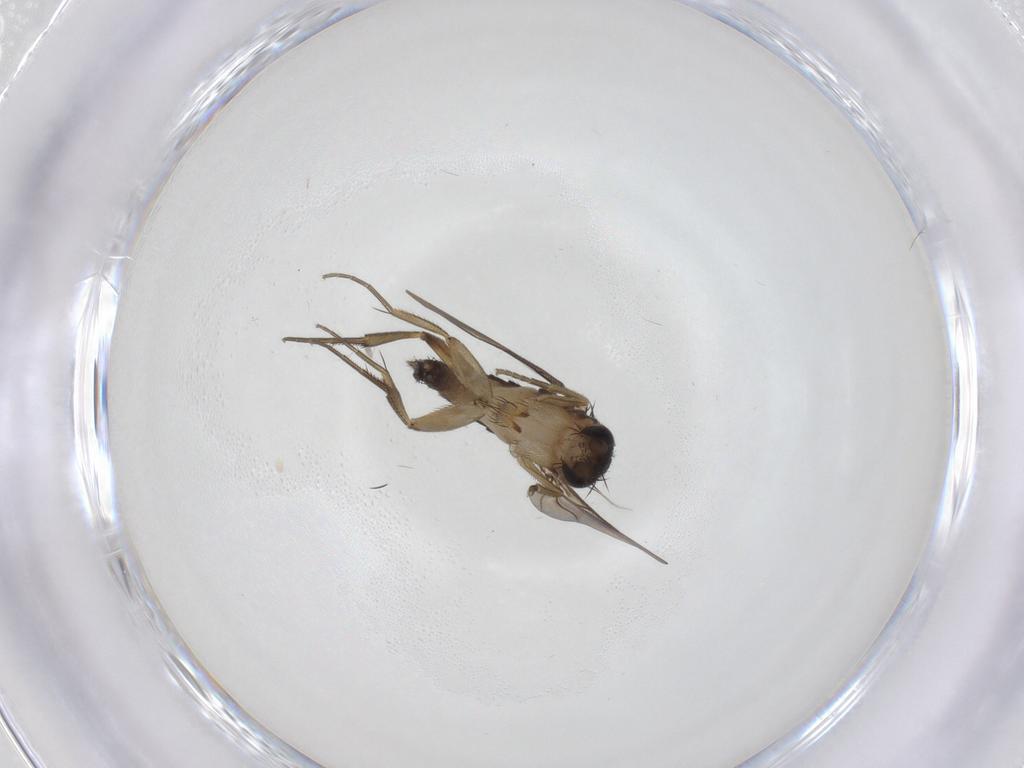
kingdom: Animalia
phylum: Arthropoda
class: Insecta
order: Diptera
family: Phoridae
